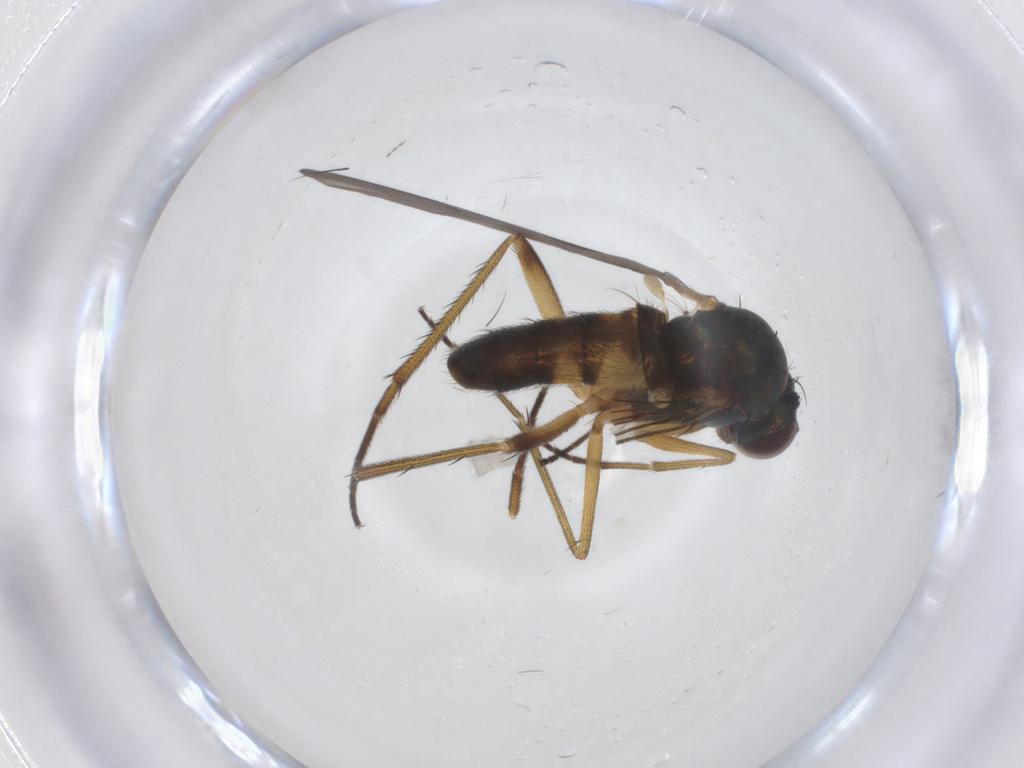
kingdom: Animalia
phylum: Arthropoda
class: Insecta
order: Diptera
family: Dolichopodidae
